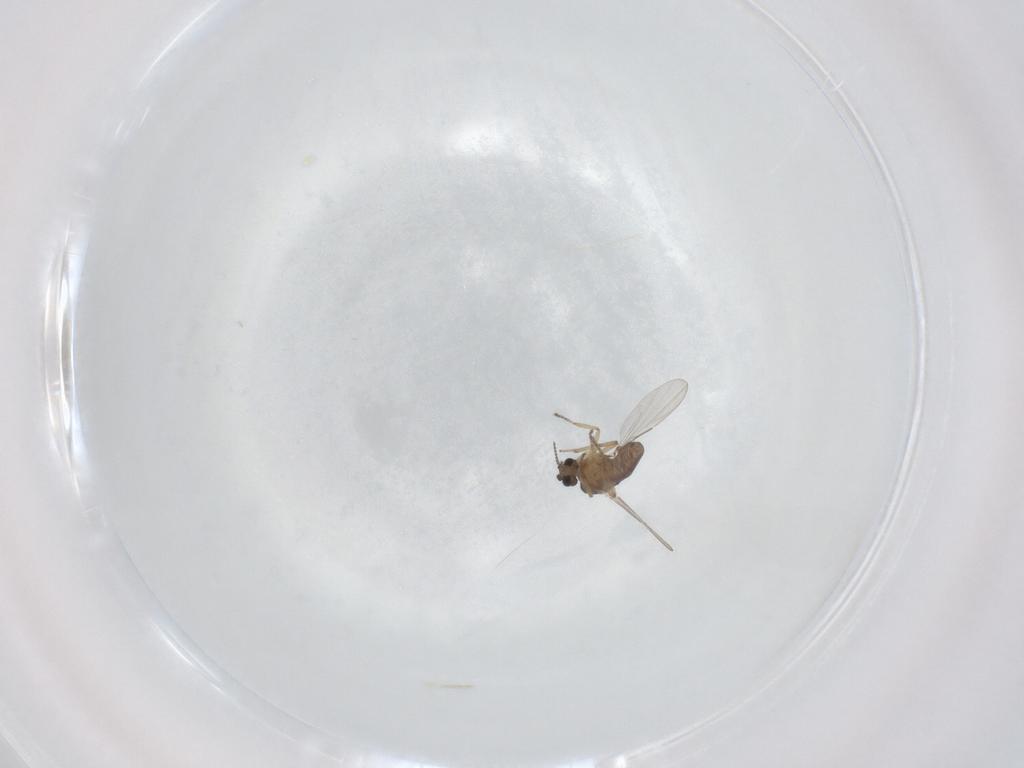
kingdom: Animalia
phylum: Arthropoda
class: Insecta
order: Diptera
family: Ceratopogonidae
